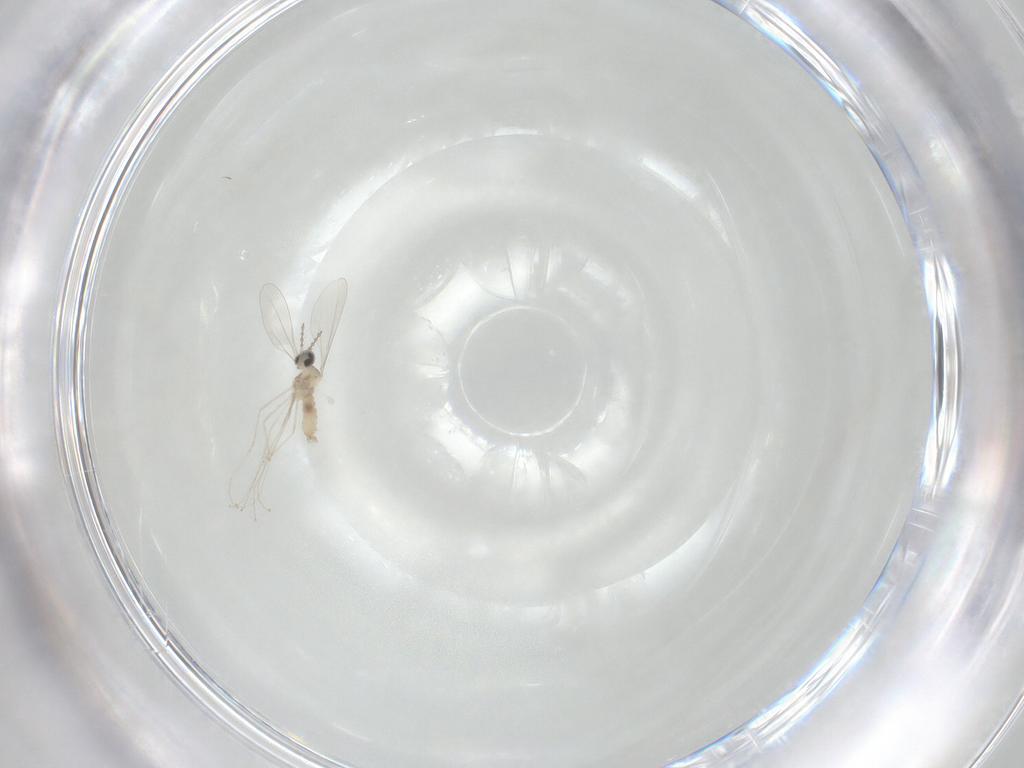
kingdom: Animalia
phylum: Arthropoda
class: Insecta
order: Diptera
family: Cecidomyiidae
